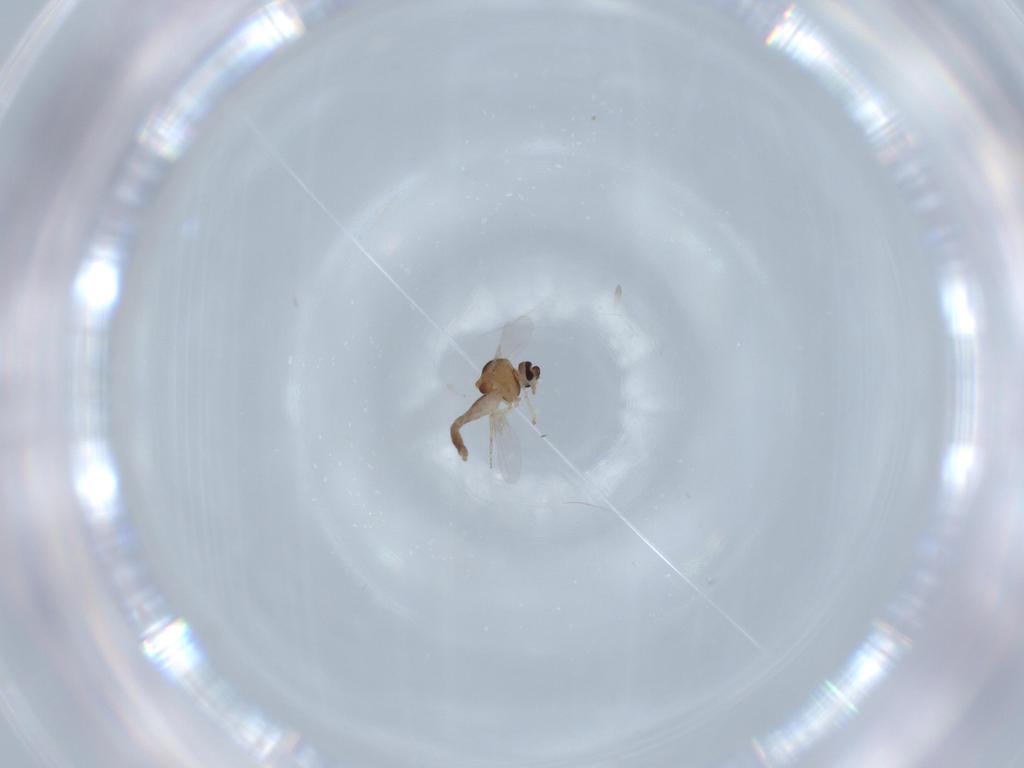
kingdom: Animalia
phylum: Arthropoda
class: Insecta
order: Diptera
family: Ceratopogonidae
